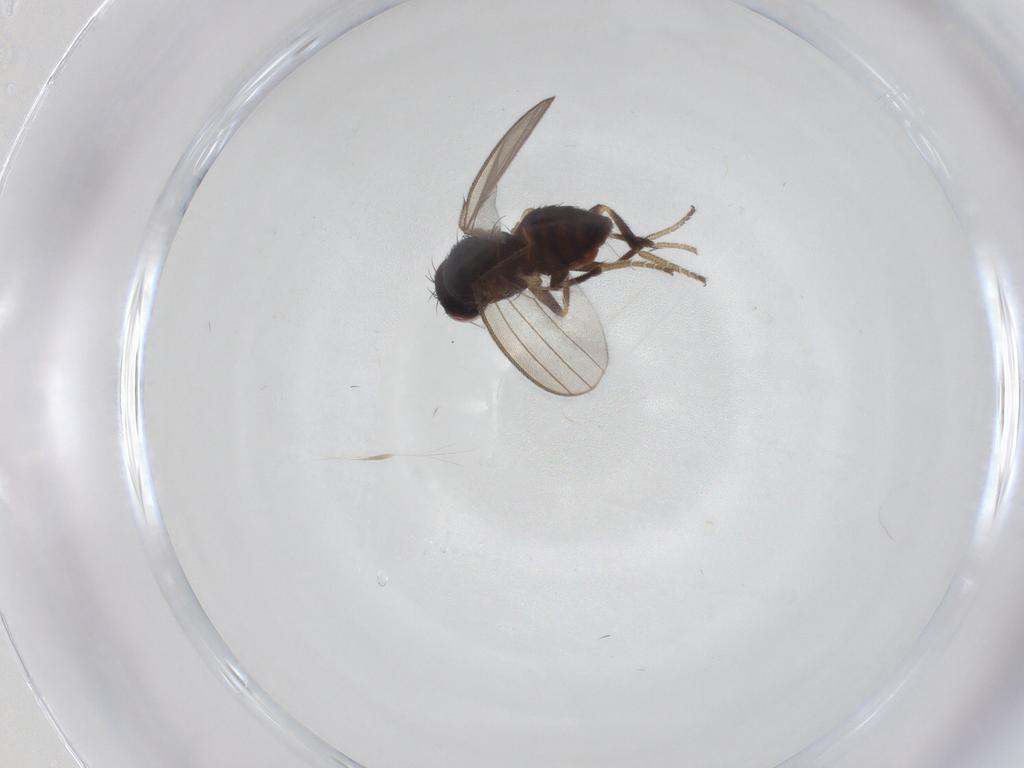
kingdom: Animalia
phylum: Arthropoda
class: Insecta
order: Diptera
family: Milichiidae
